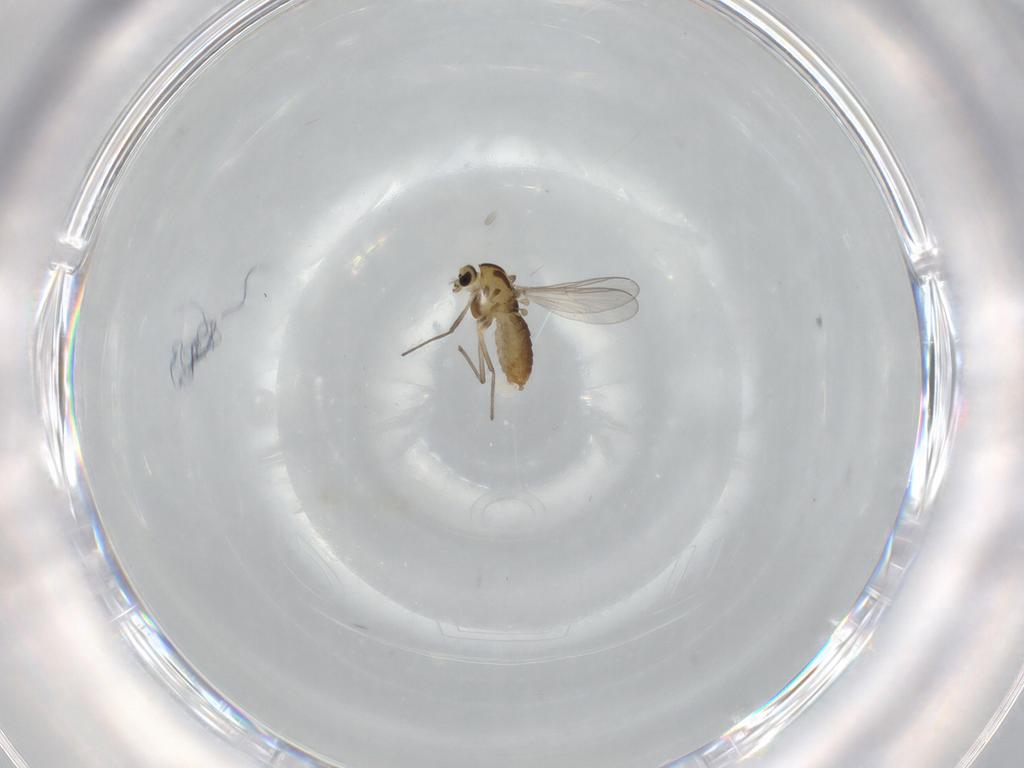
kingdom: Animalia
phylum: Arthropoda
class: Insecta
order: Diptera
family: Chironomidae
